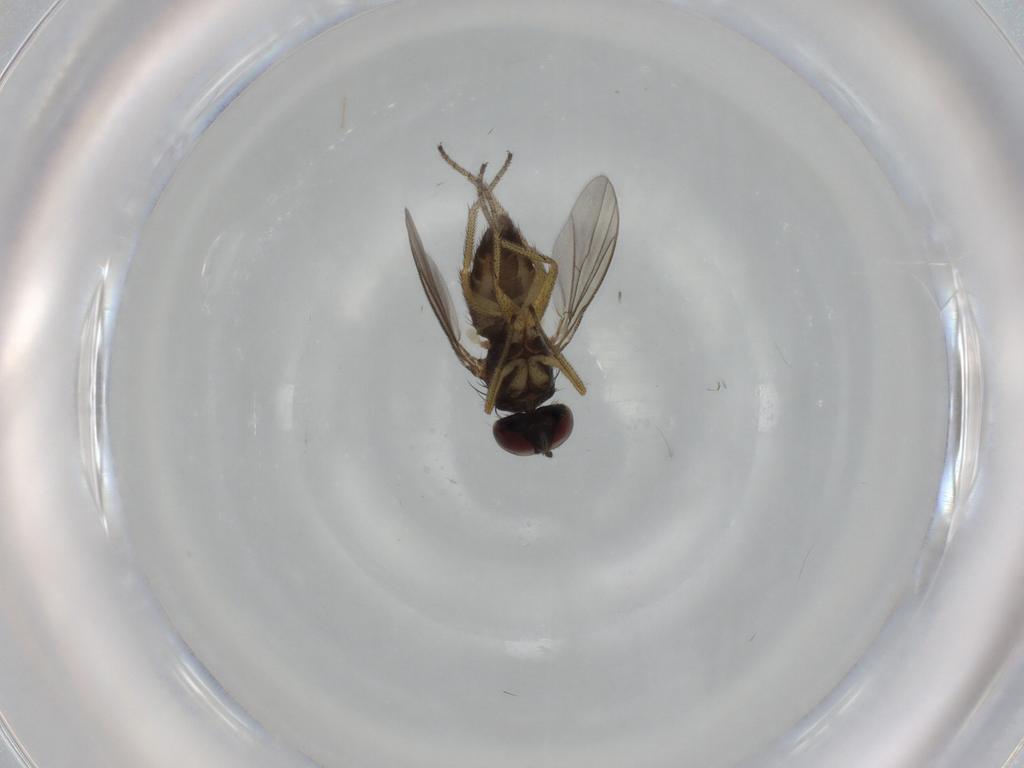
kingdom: Animalia
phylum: Arthropoda
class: Insecta
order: Diptera
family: Dolichopodidae
